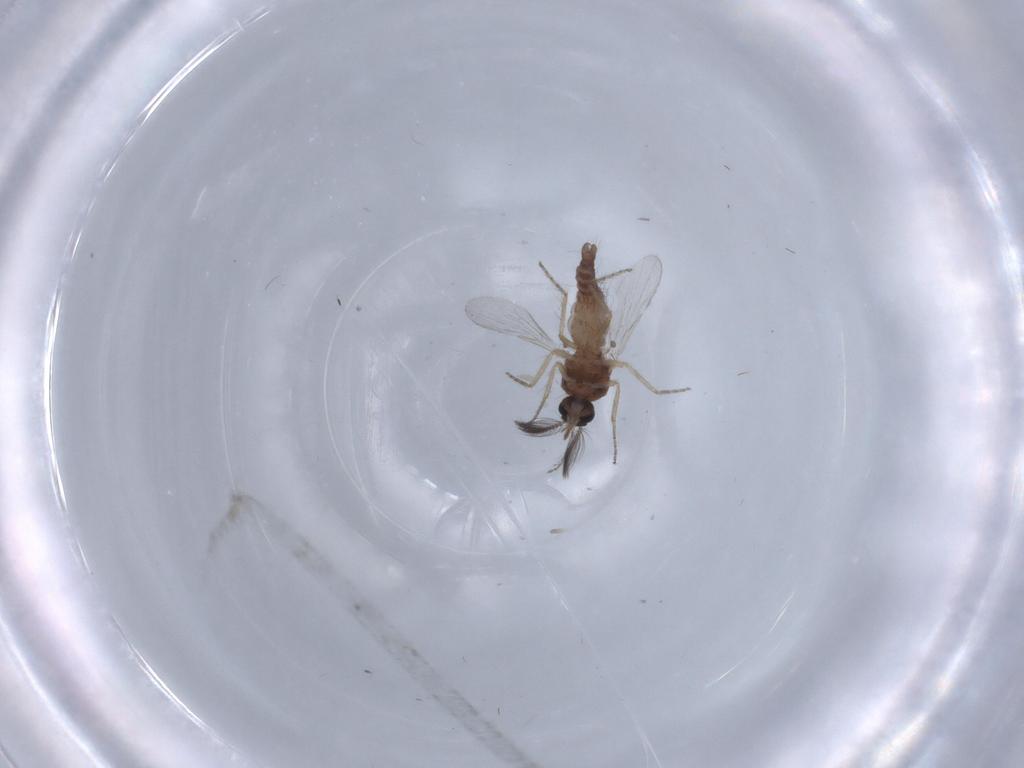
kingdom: Animalia
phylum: Arthropoda
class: Insecta
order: Diptera
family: Ceratopogonidae
